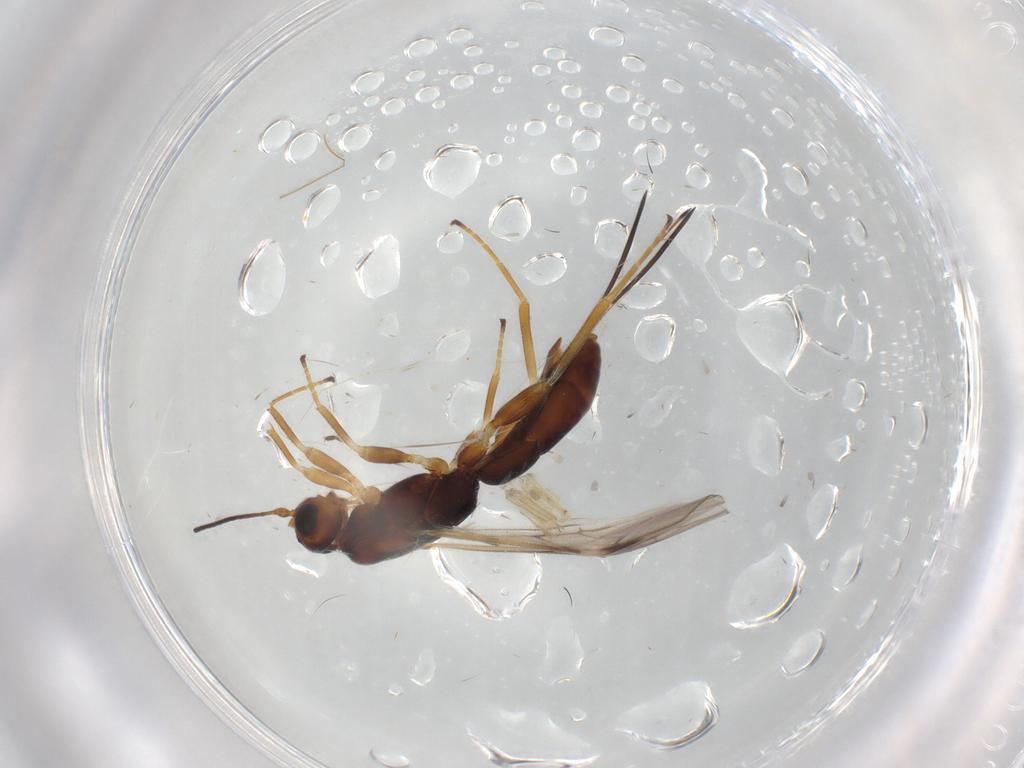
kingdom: Animalia
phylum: Arthropoda
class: Insecta
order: Hymenoptera
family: Braconidae
